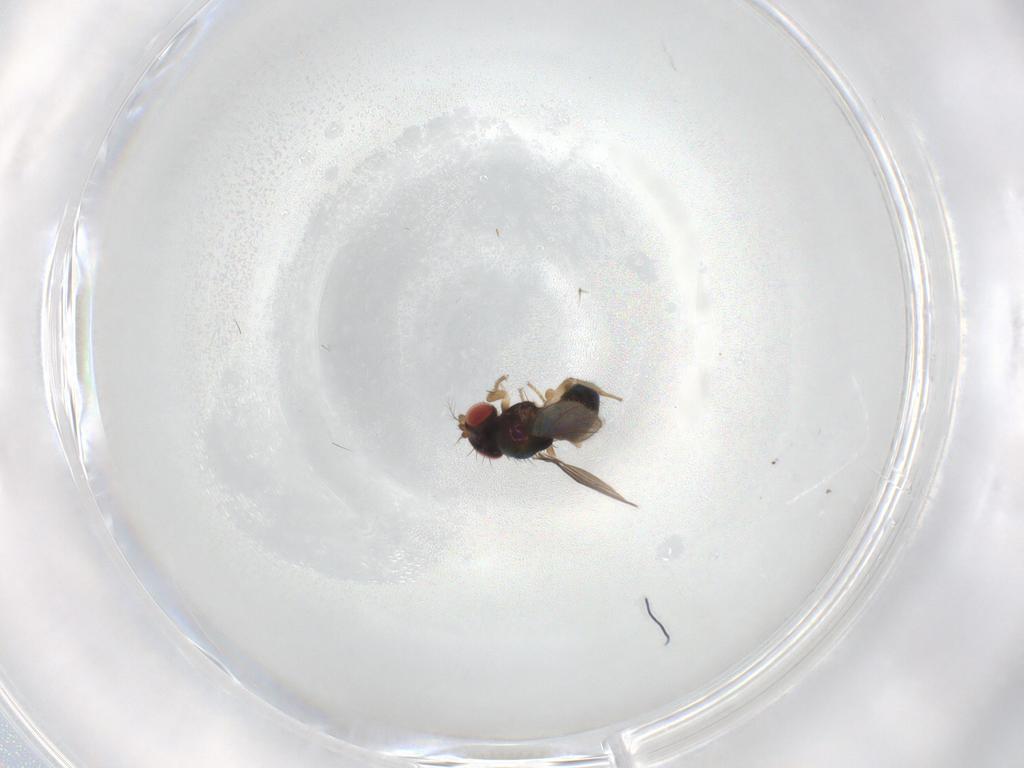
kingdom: Animalia
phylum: Arthropoda
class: Insecta
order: Diptera
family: Drosophilidae
